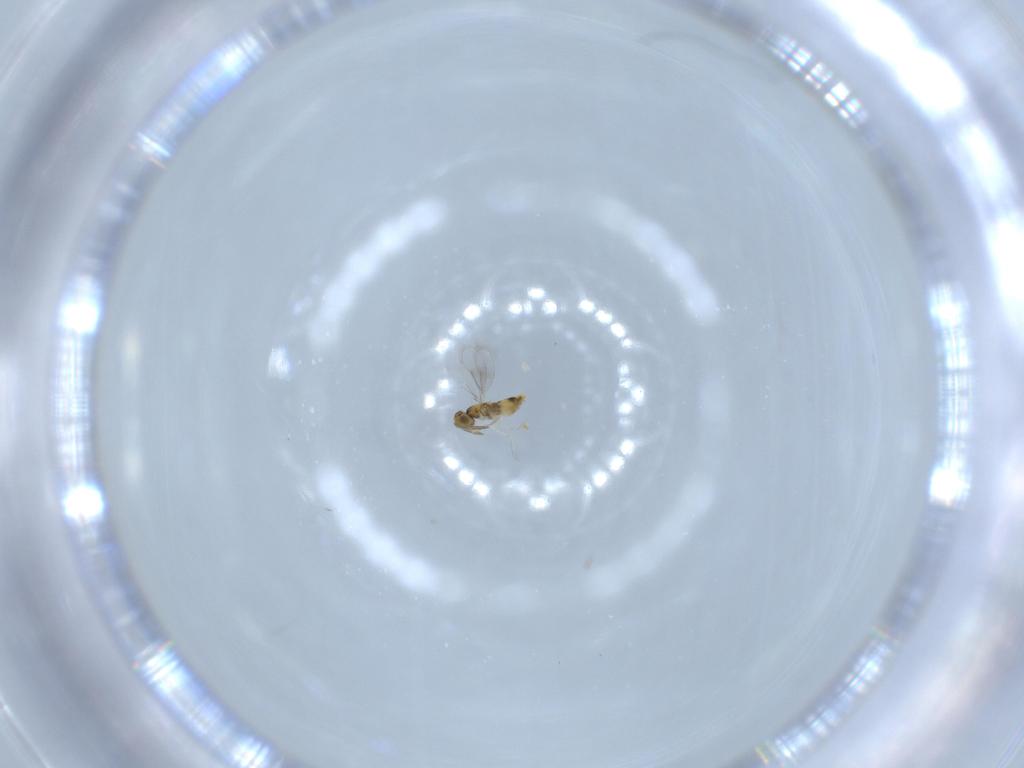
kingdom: Animalia
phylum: Arthropoda
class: Insecta
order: Hymenoptera
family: Aphelinidae
